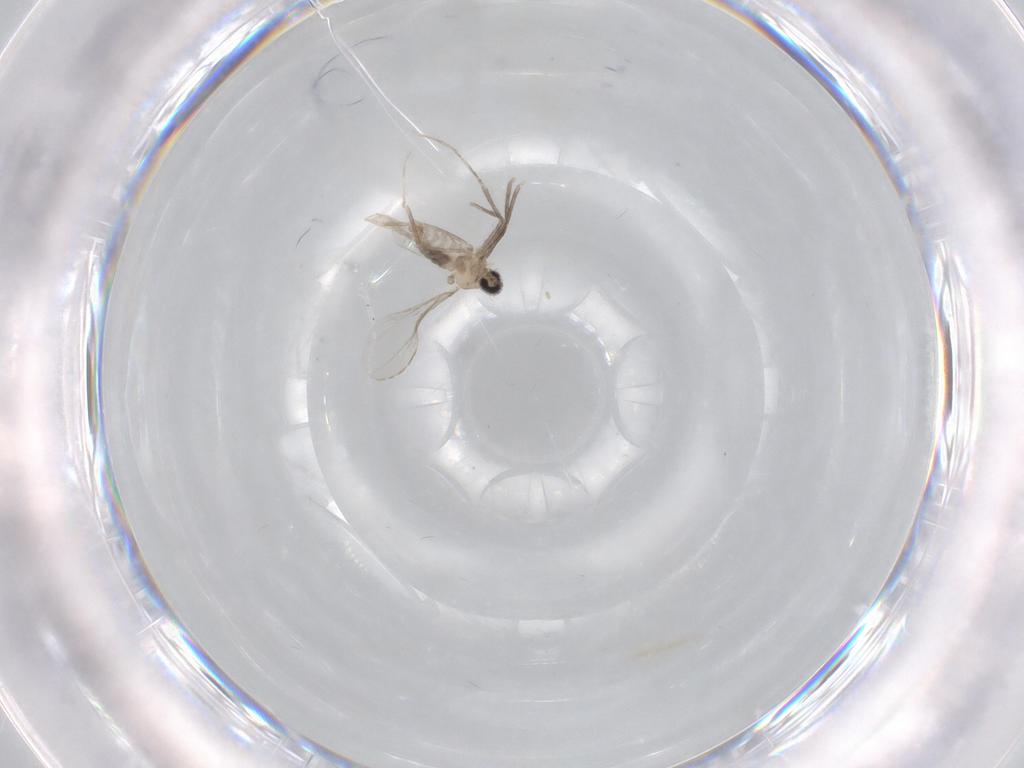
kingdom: Animalia
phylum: Arthropoda
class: Insecta
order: Diptera
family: Cecidomyiidae
